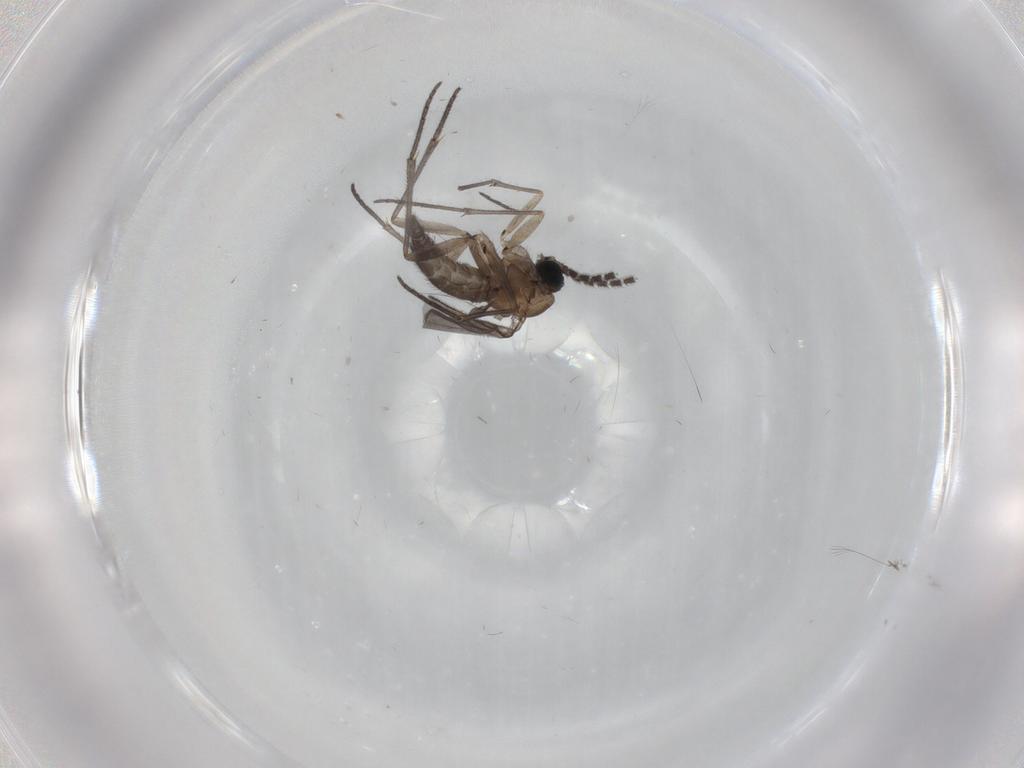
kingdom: Animalia
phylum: Arthropoda
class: Insecta
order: Diptera
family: Sciaridae
